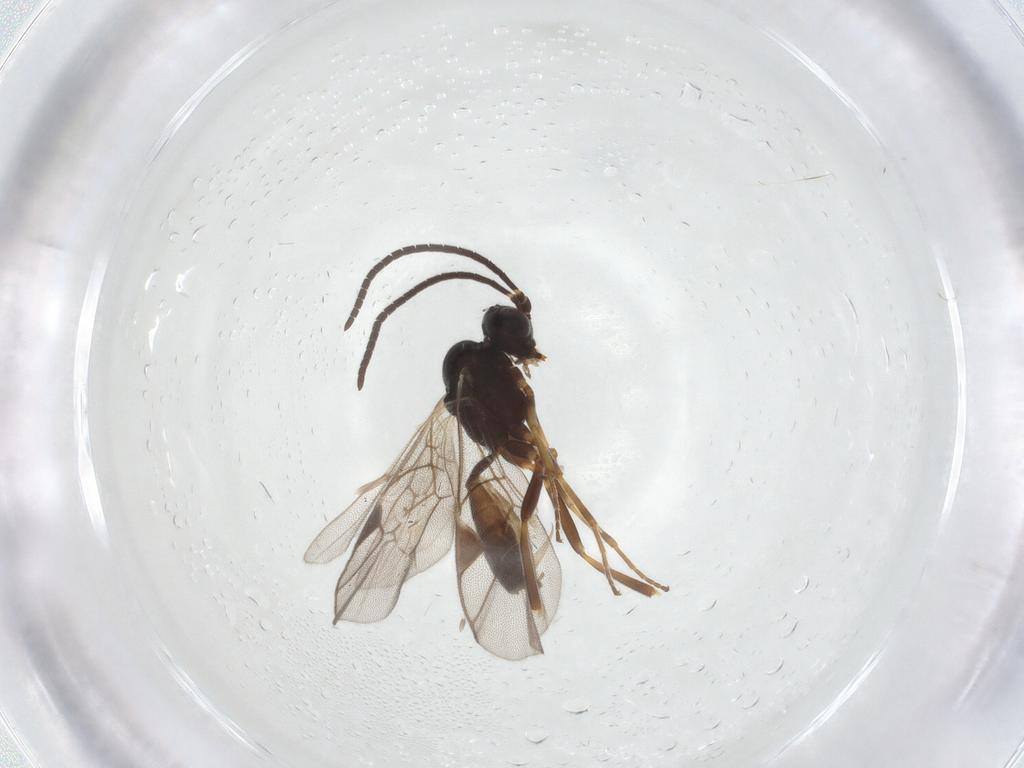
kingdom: Animalia
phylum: Arthropoda
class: Insecta
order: Hymenoptera
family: Ichneumonidae
